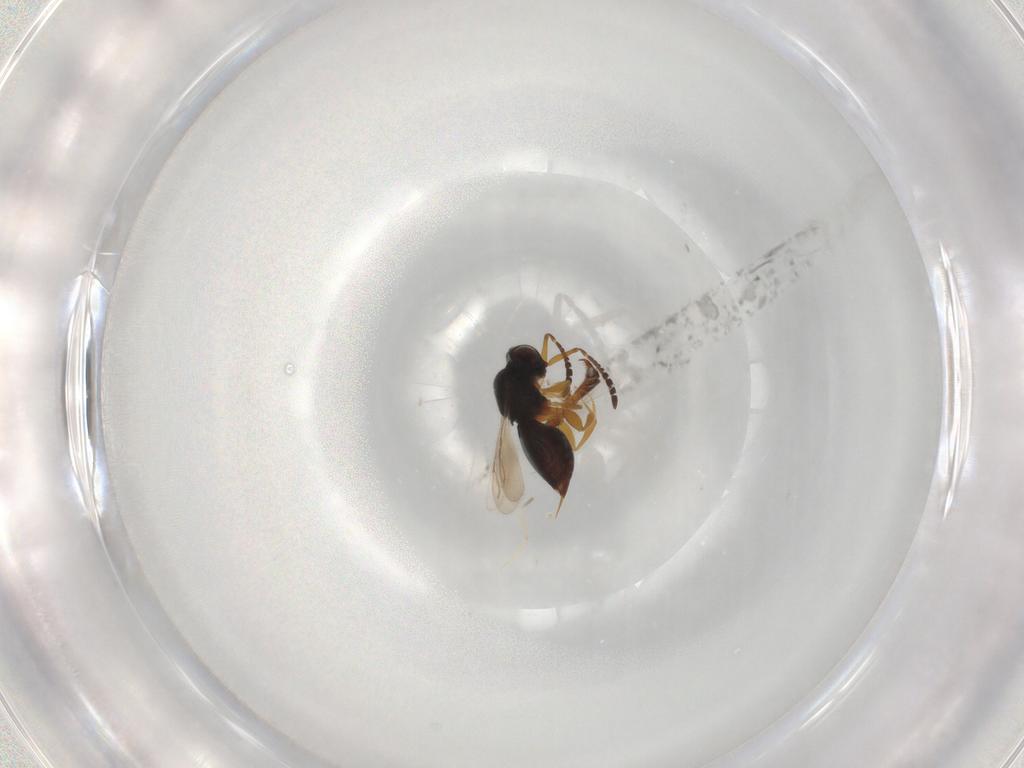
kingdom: Animalia
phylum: Arthropoda
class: Insecta
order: Hymenoptera
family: Ichneumonidae
